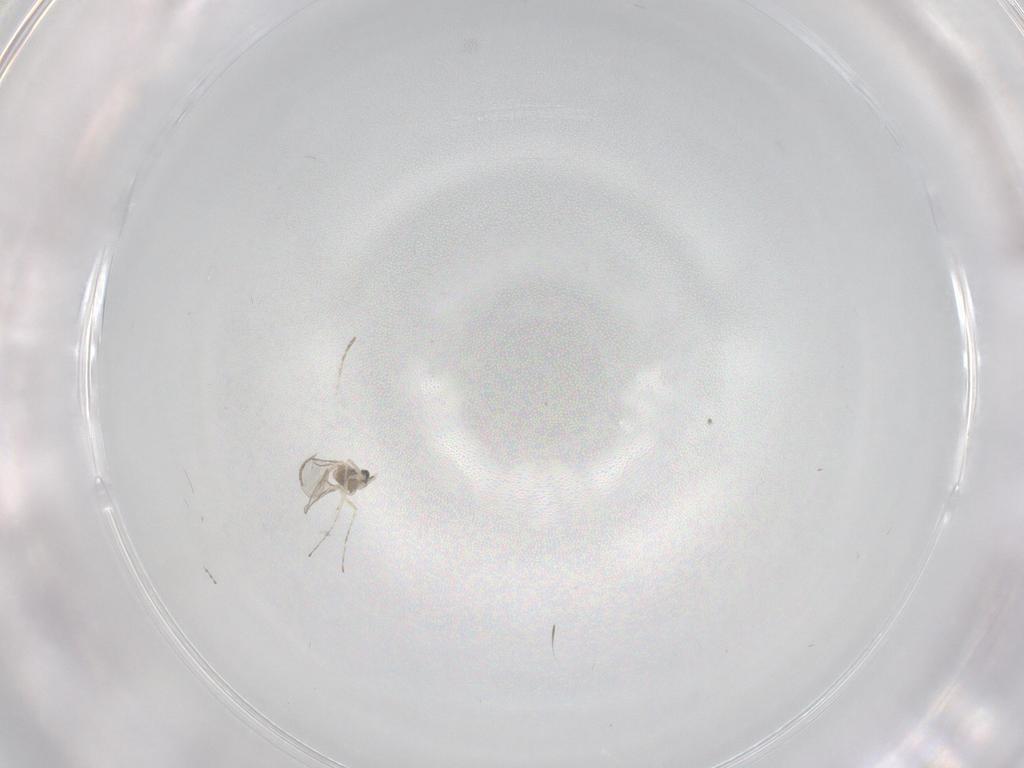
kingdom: Animalia
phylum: Arthropoda
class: Insecta
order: Diptera
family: Cecidomyiidae
